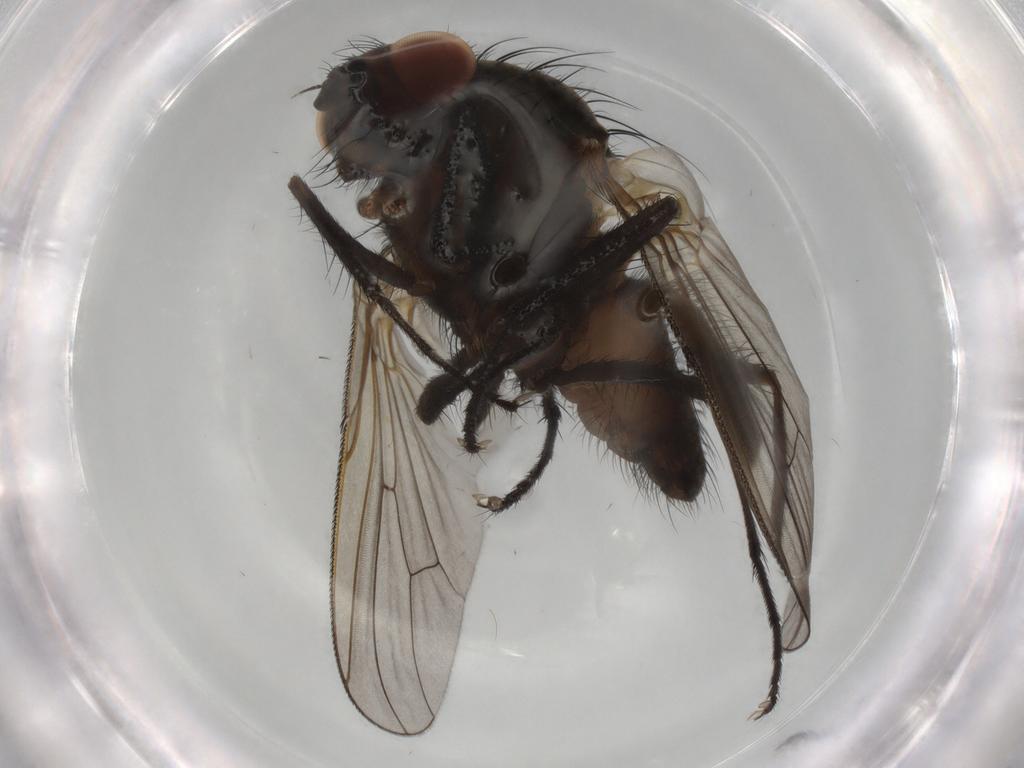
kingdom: Animalia
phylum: Arthropoda
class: Insecta
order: Diptera
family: Anthomyiidae
